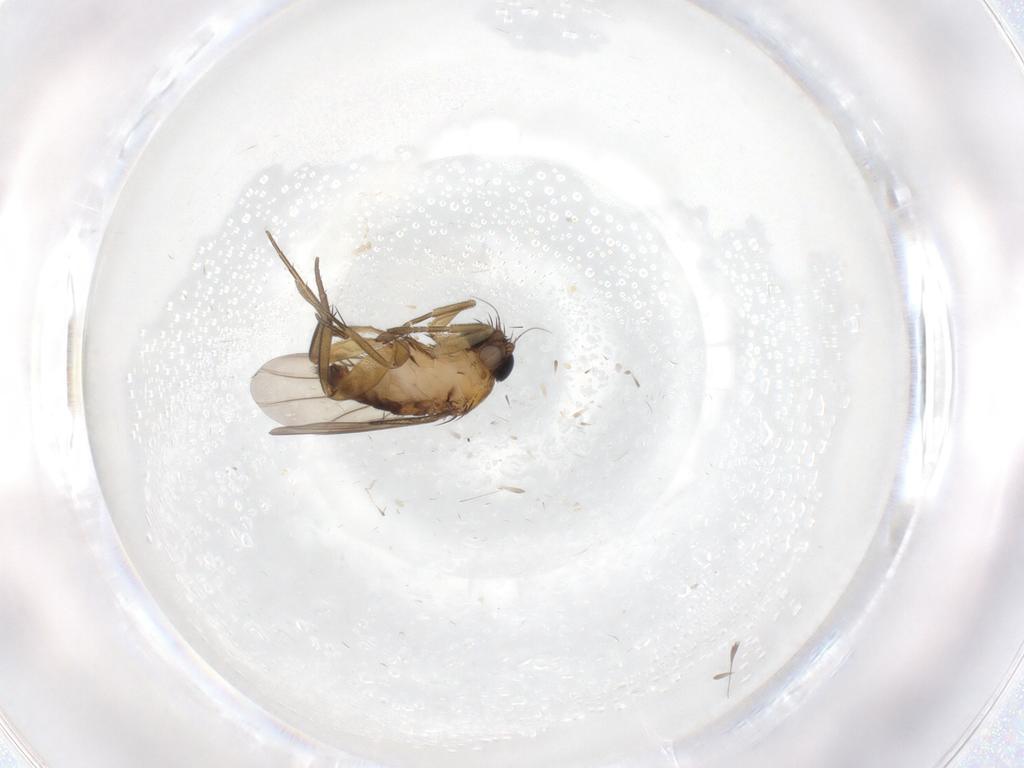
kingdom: Animalia
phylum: Arthropoda
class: Insecta
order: Diptera
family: Phoridae
